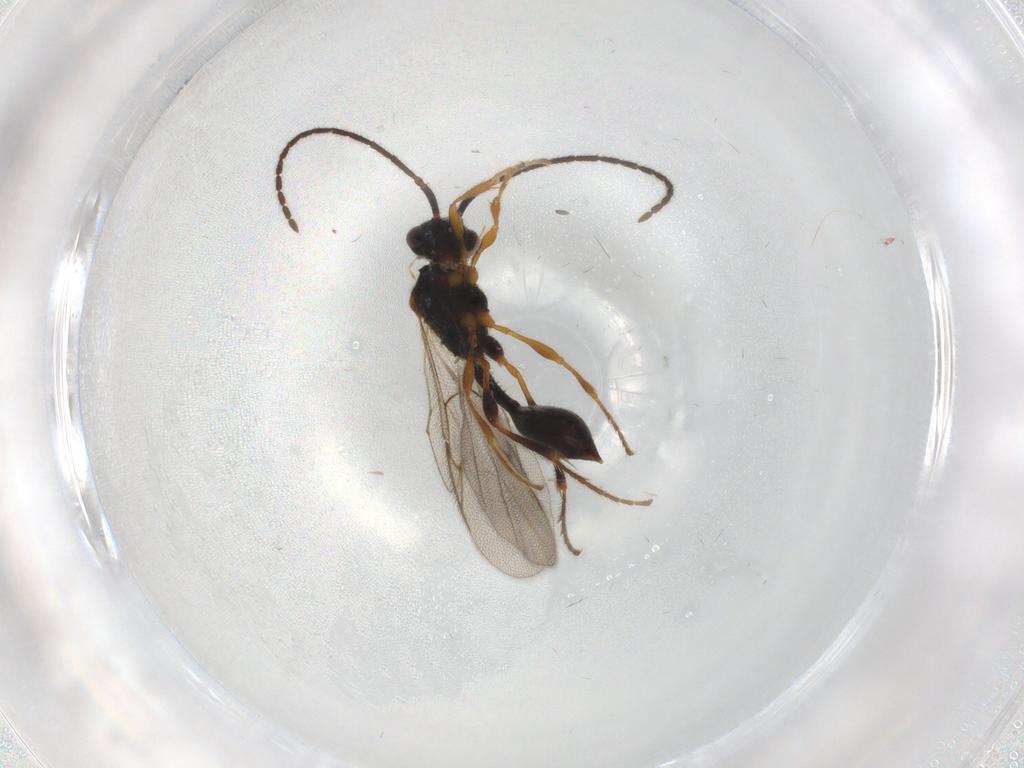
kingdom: Animalia
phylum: Arthropoda
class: Insecta
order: Hymenoptera
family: Diapriidae
